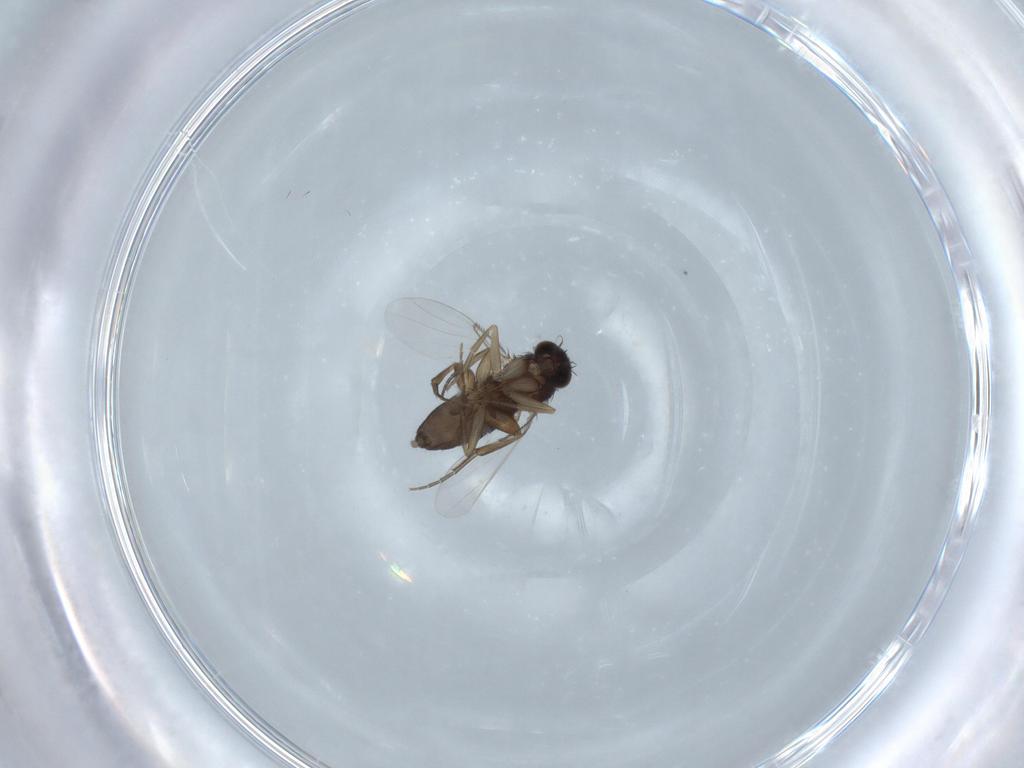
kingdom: Animalia
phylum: Arthropoda
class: Insecta
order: Diptera
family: Phoridae
